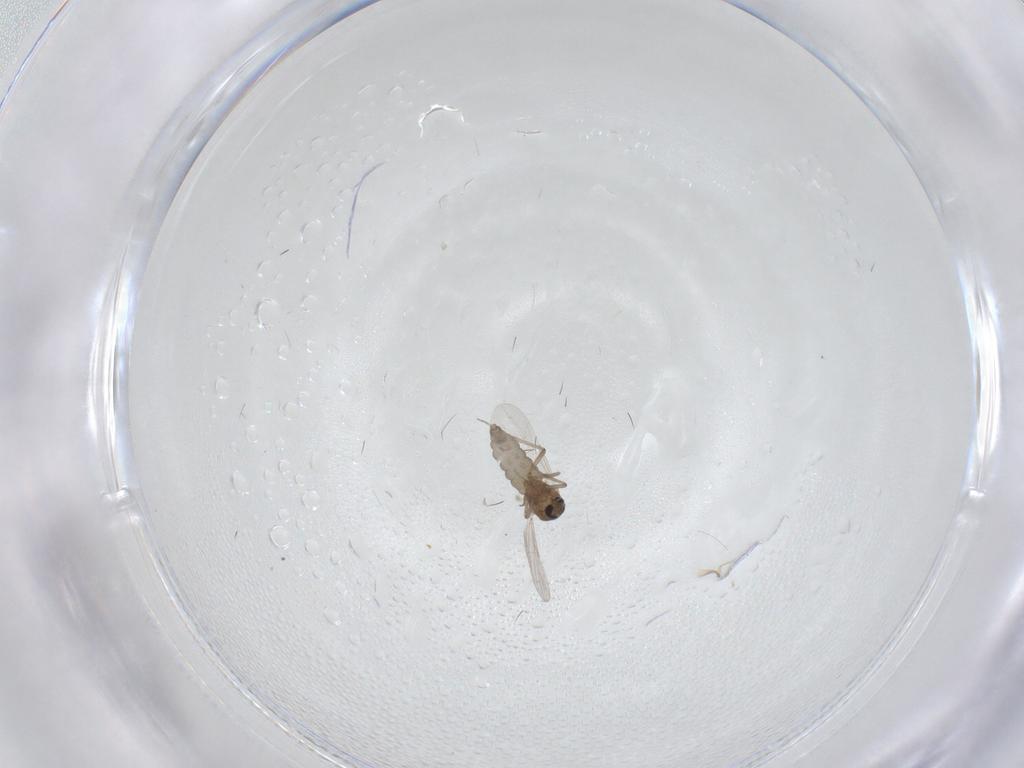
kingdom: Animalia
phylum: Arthropoda
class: Insecta
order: Diptera
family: Ceratopogonidae
